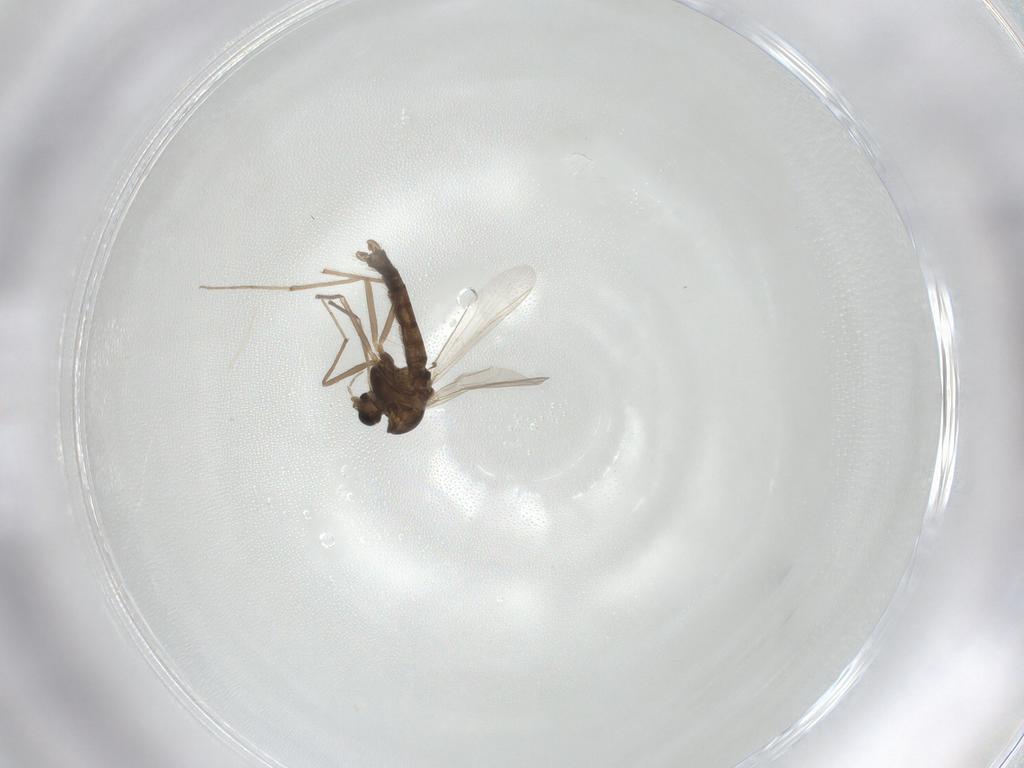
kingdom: Animalia
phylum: Arthropoda
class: Insecta
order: Diptera
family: Chironomidae
